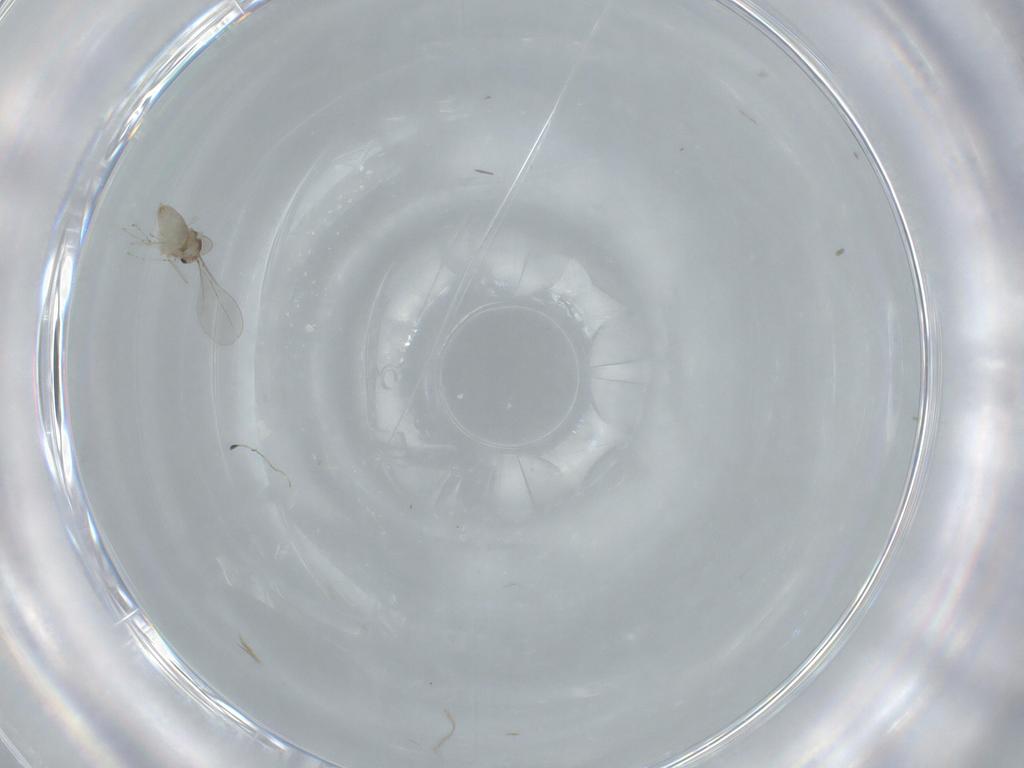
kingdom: Animalia
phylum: Arthropoda
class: Insecta
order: Diptera
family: Cecidomyiidae
